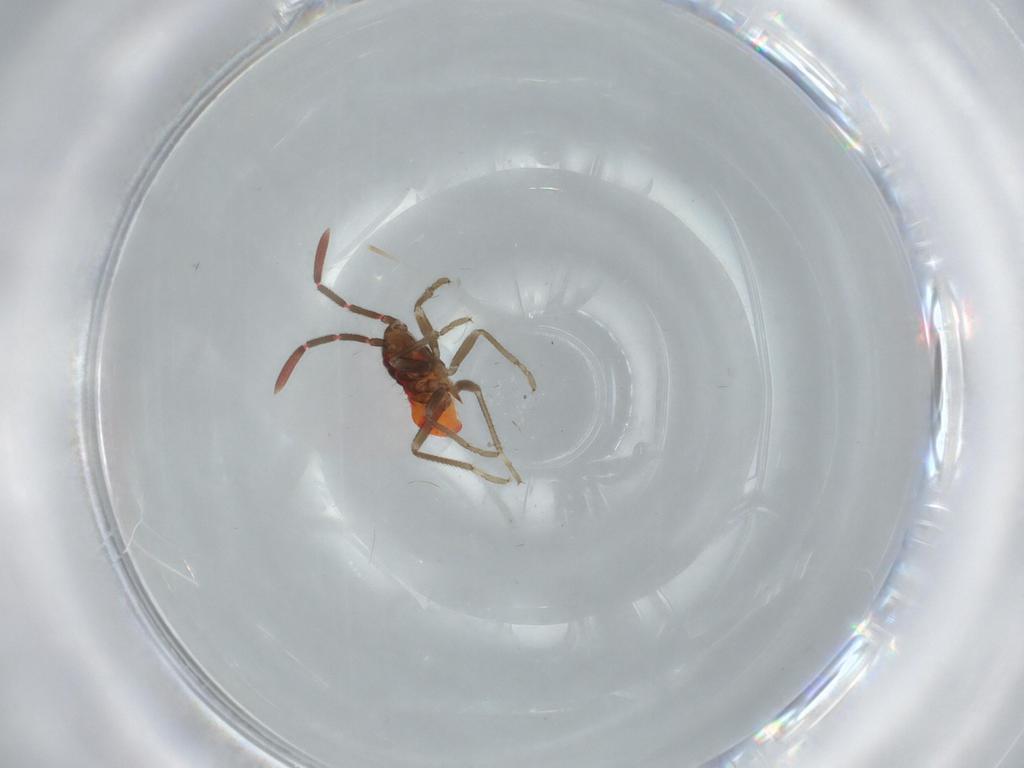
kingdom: Animalia
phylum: Arthropoda
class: Insecta
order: Hemiptera
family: Rhyparochromidae
